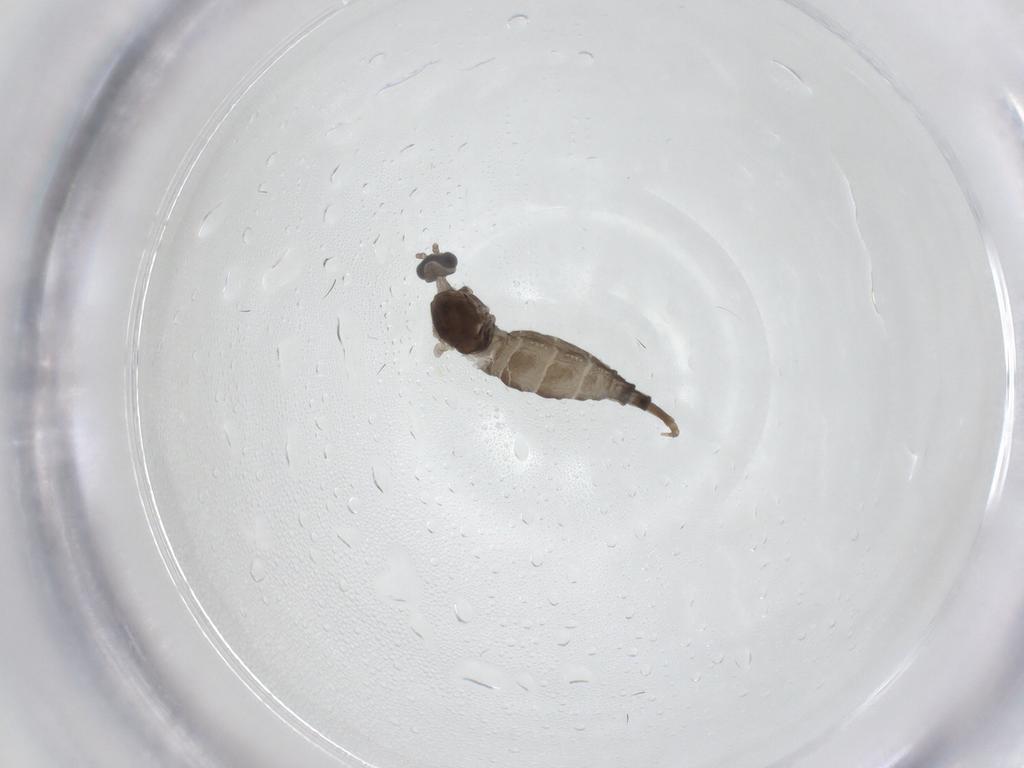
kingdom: Animalia
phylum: Arthropoda
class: Insecta
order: Diptera
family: Cecidomyiidae
